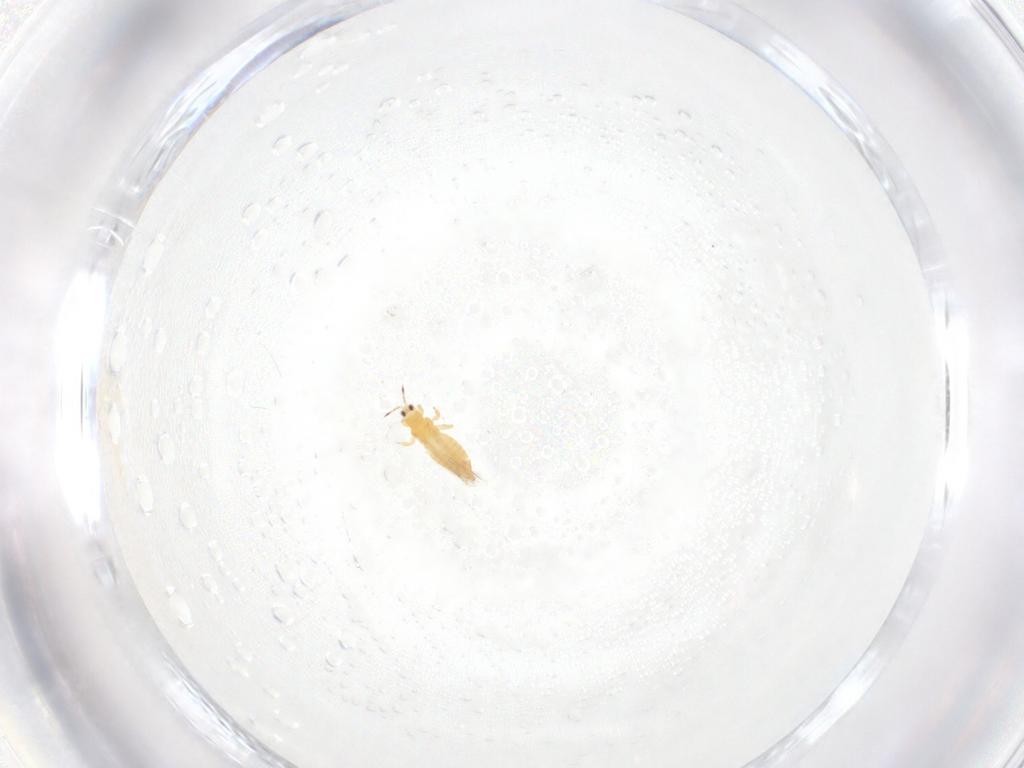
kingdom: Animalia
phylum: Arthropoda
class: Insecta
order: Thysanoptera
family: Thripidae
